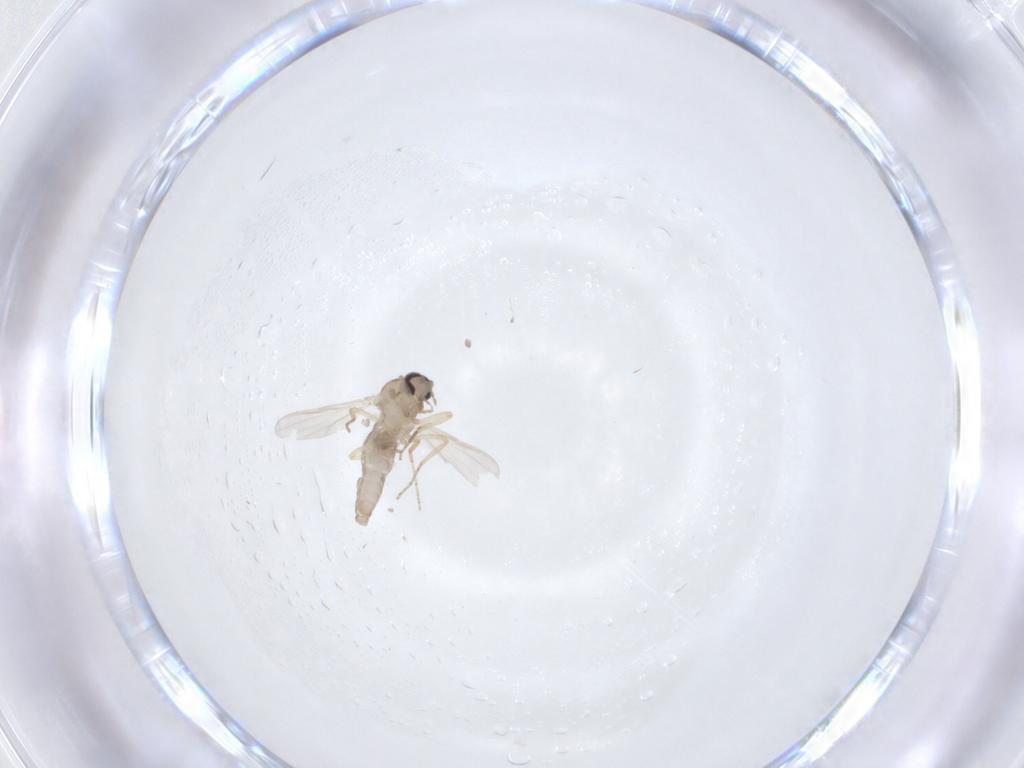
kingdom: Animalia
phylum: Arthropoda
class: Insecta
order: Diptera
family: Ceratopogonidae
